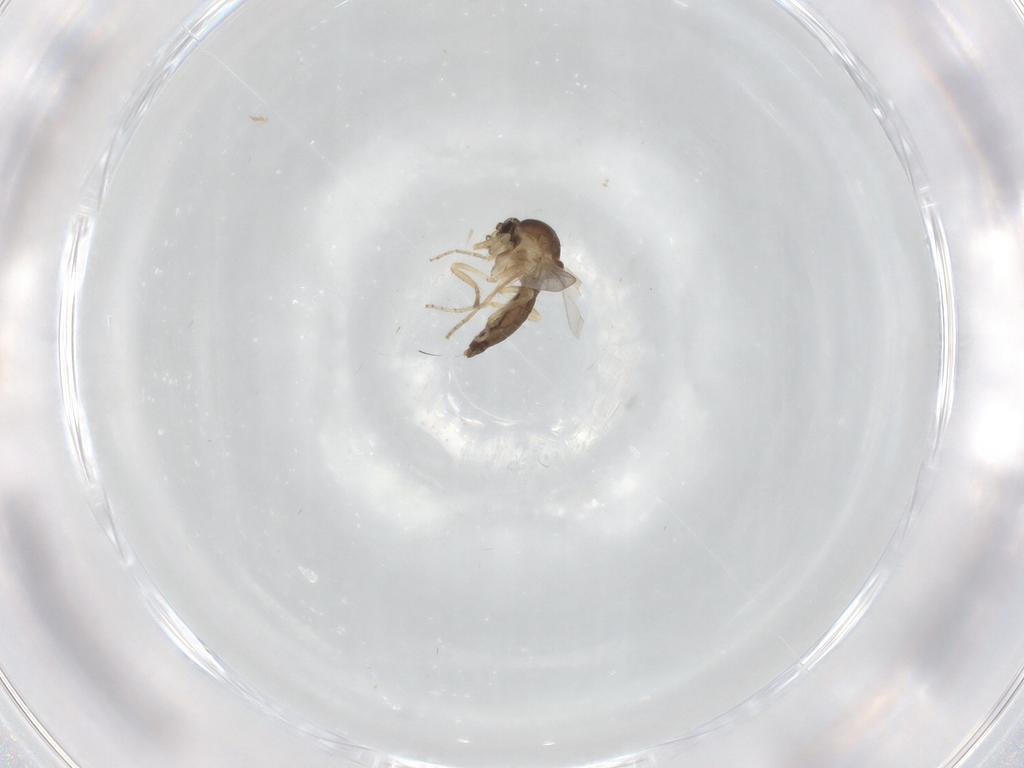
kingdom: Animalia
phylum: Arthropoda
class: Insecta
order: Diptera
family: Ceratopogonidae
